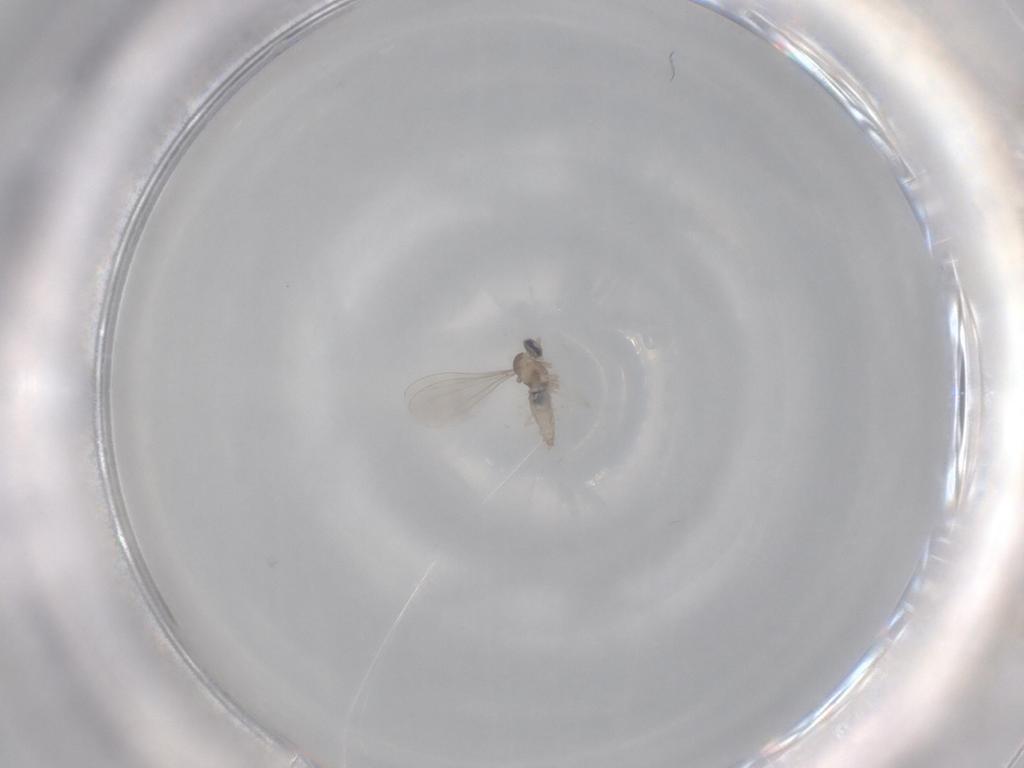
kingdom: Animalia
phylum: Arthropoda
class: Insecta
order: Diptera
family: Cecidomyiidae
